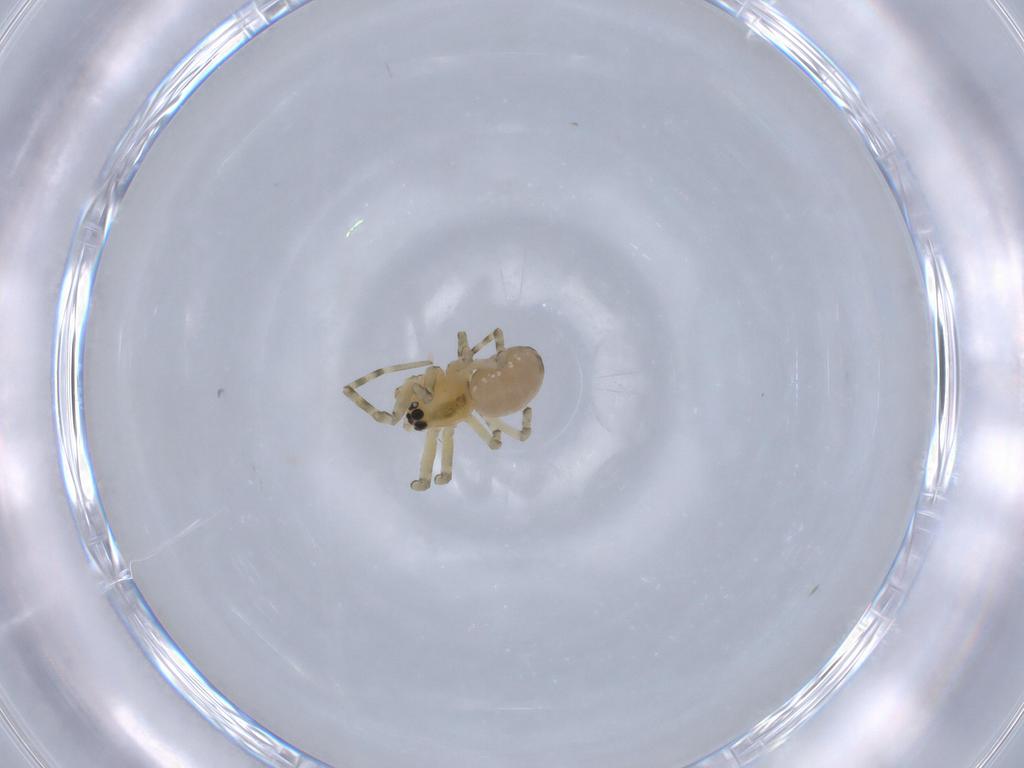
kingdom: Animalia
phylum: Arthropoda
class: Arachnida
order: Araneae
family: Linyphiidae
